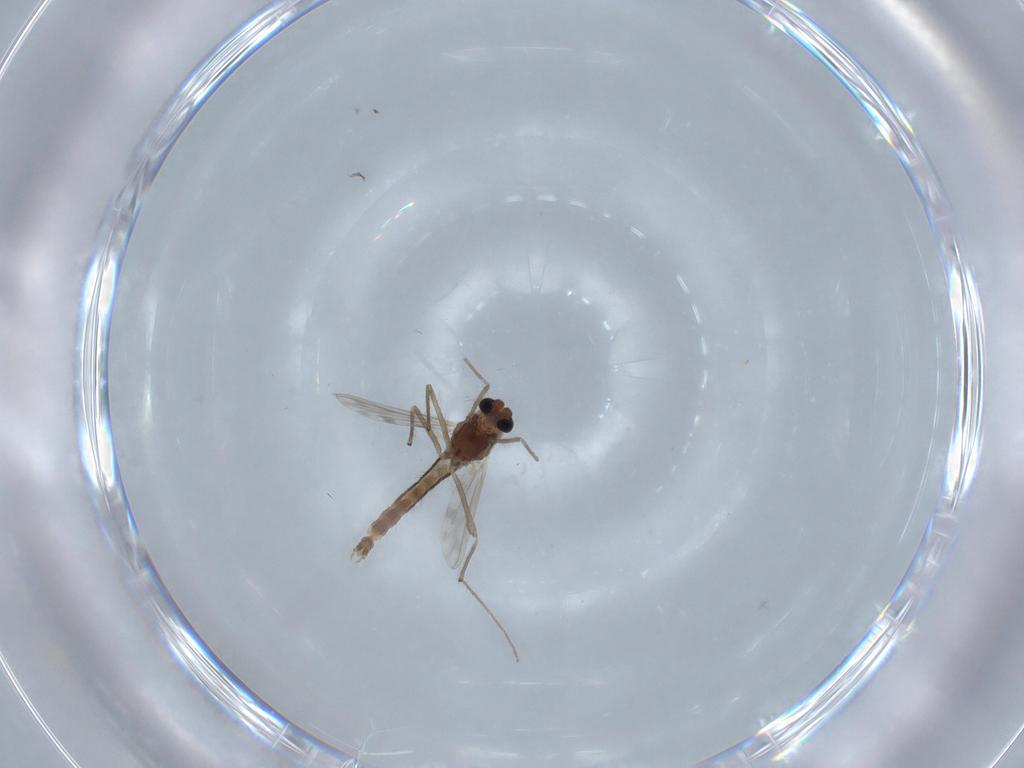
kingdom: Animalia
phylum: Arthropoda
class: Insecta
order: Diptera
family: Chironomidae
